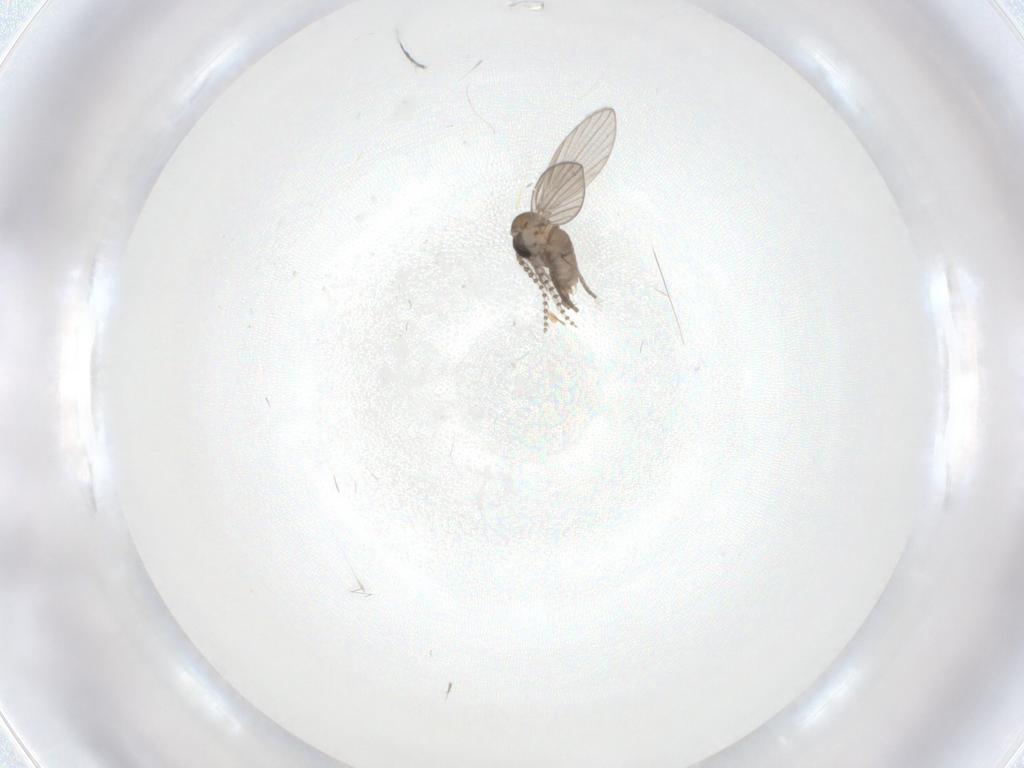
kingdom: Animalia
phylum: Arthropoda
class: Insecta
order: Diptera
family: Psychodidae
